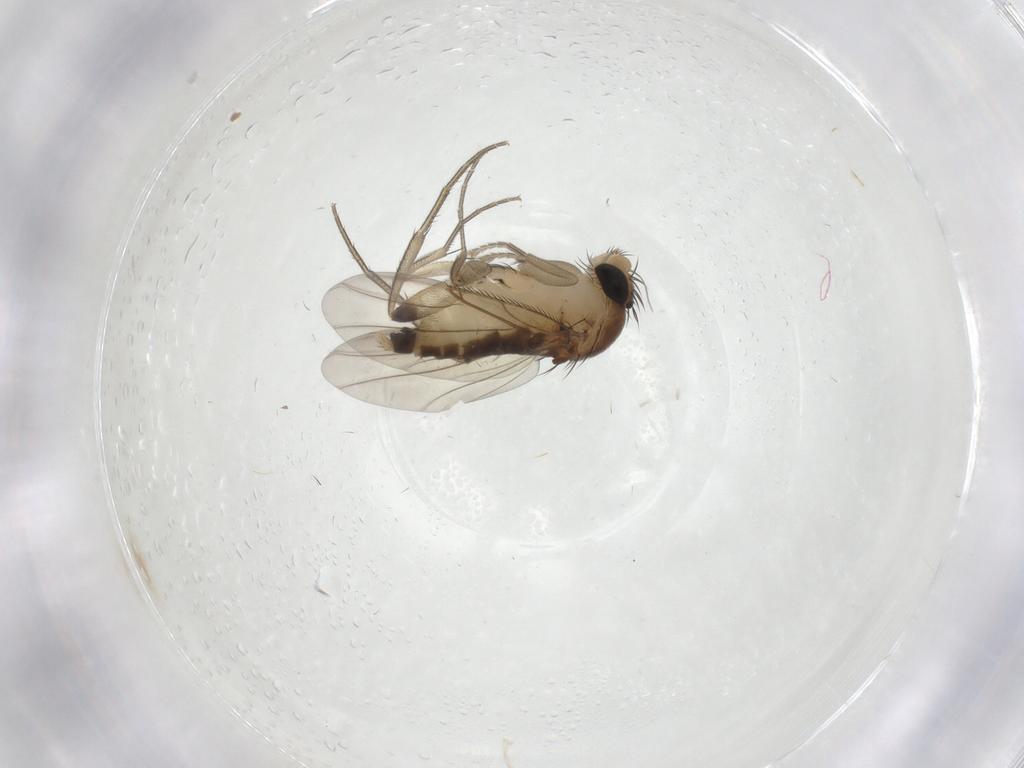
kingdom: Animalia
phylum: Arthropoda
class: Insecta
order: Diptera
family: Phoridae
